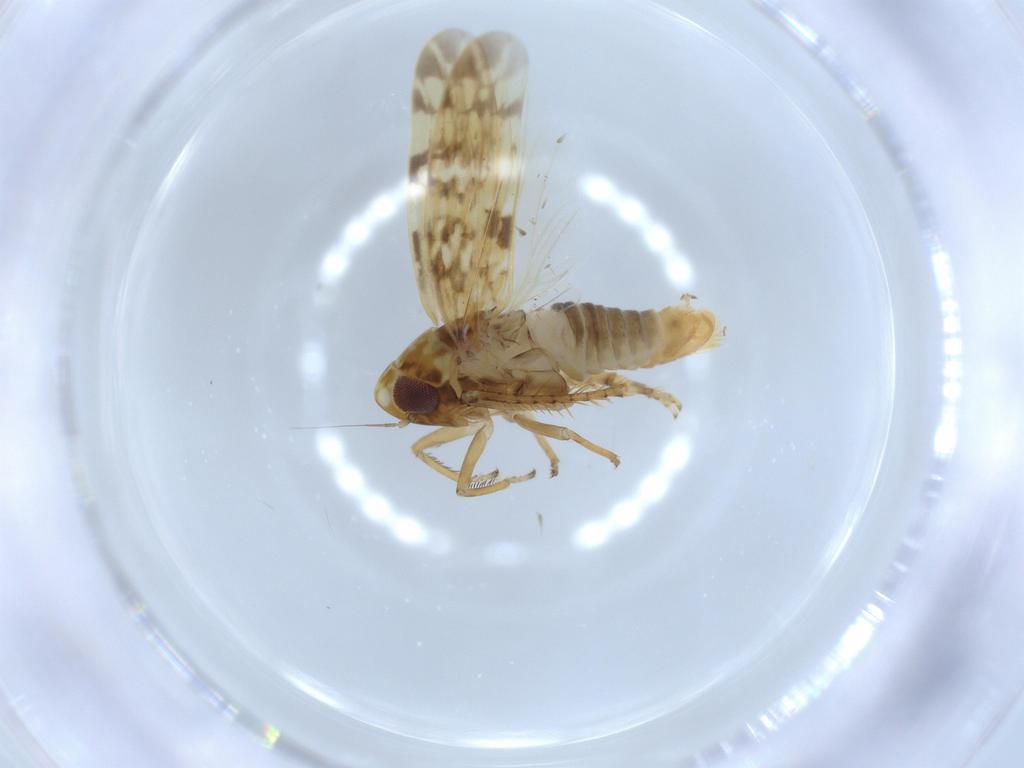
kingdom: Animalia
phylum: Arthropoda
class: Insecta
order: Hemiptera
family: Cicadellidae
